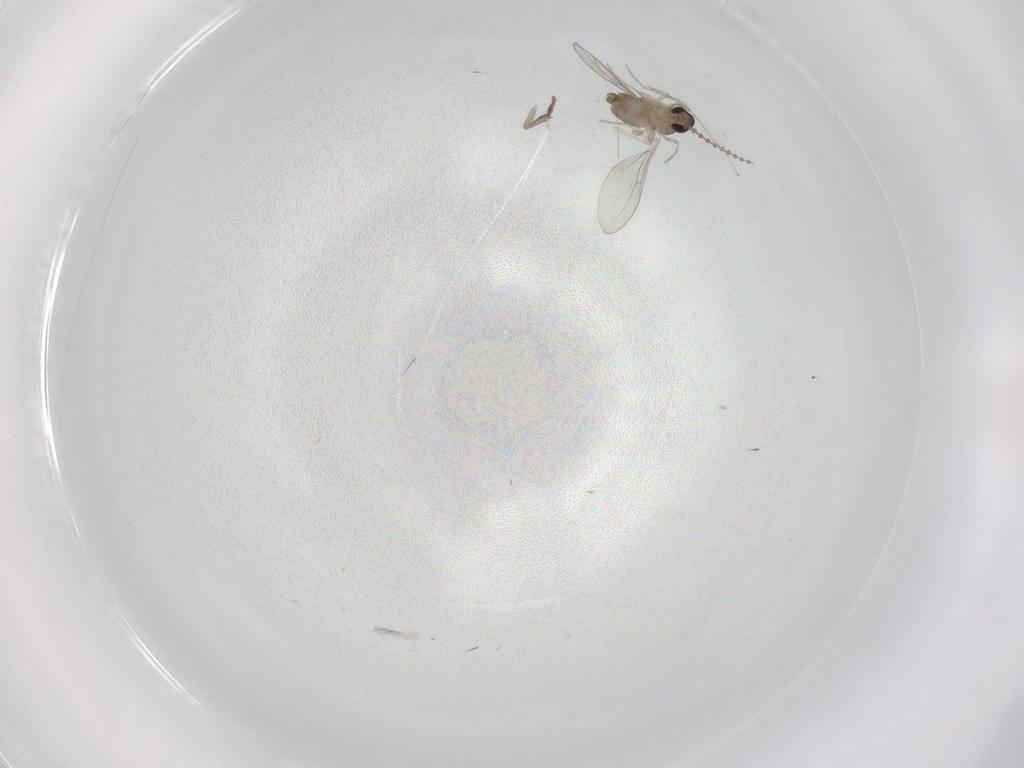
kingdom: Animalia
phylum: Arthropoda
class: Insecta
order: Diptera
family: Psychodidae
